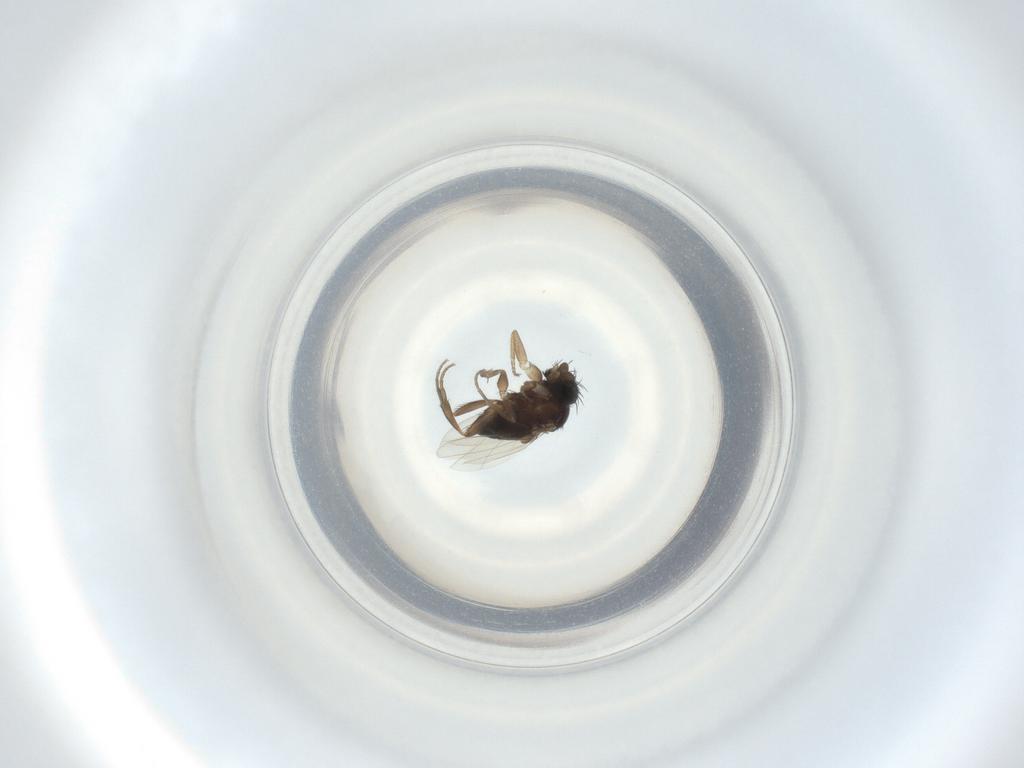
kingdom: Animalia
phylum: Arthropoda
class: Insecta
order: Diptera
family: Phoridae
